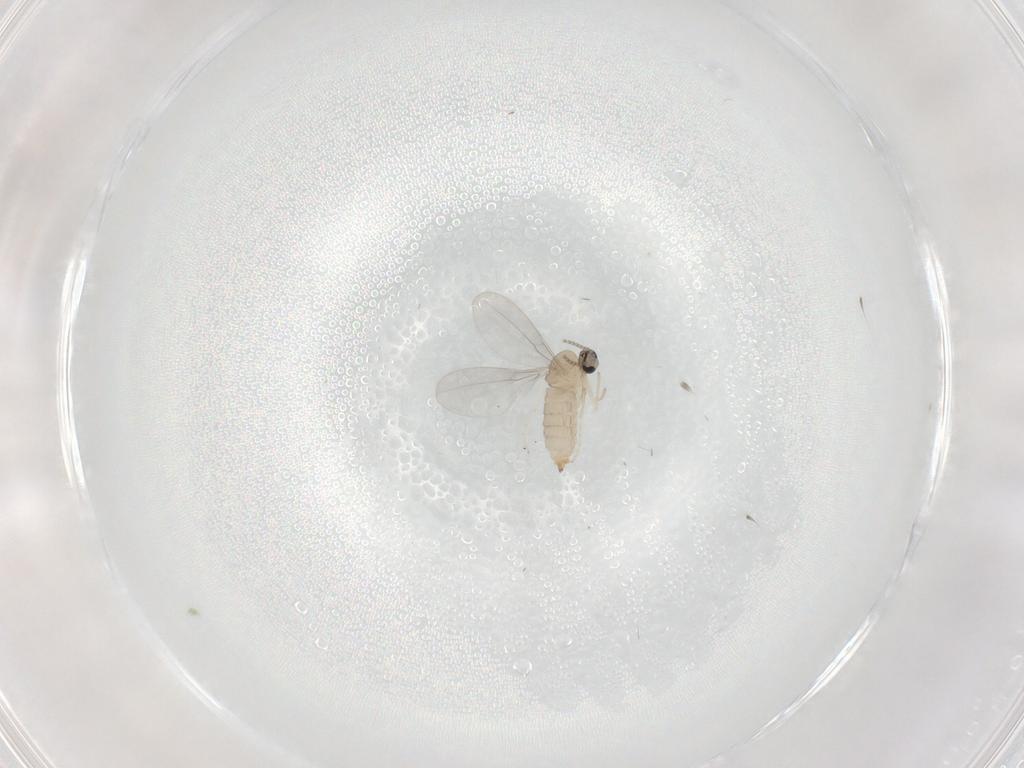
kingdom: Animalia
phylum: Arthropoda
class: Insecta
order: Diptera
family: Cecidomyiidae
